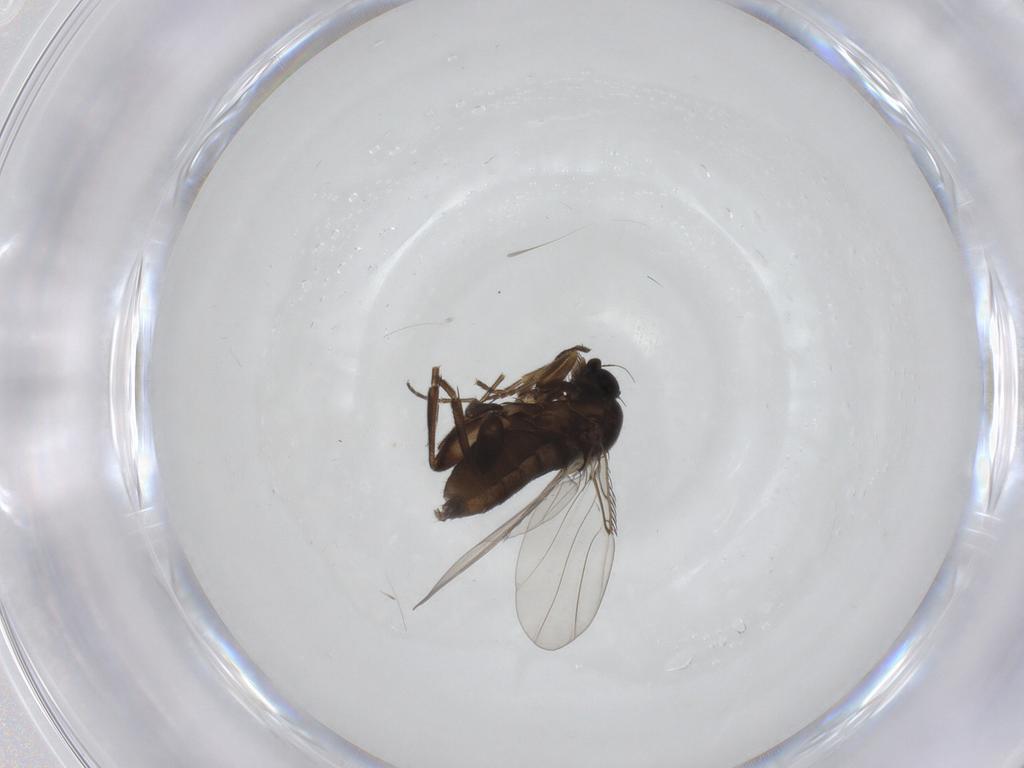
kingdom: Animalia
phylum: Arthropoda
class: Insecta
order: Diptera
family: Phoridae
